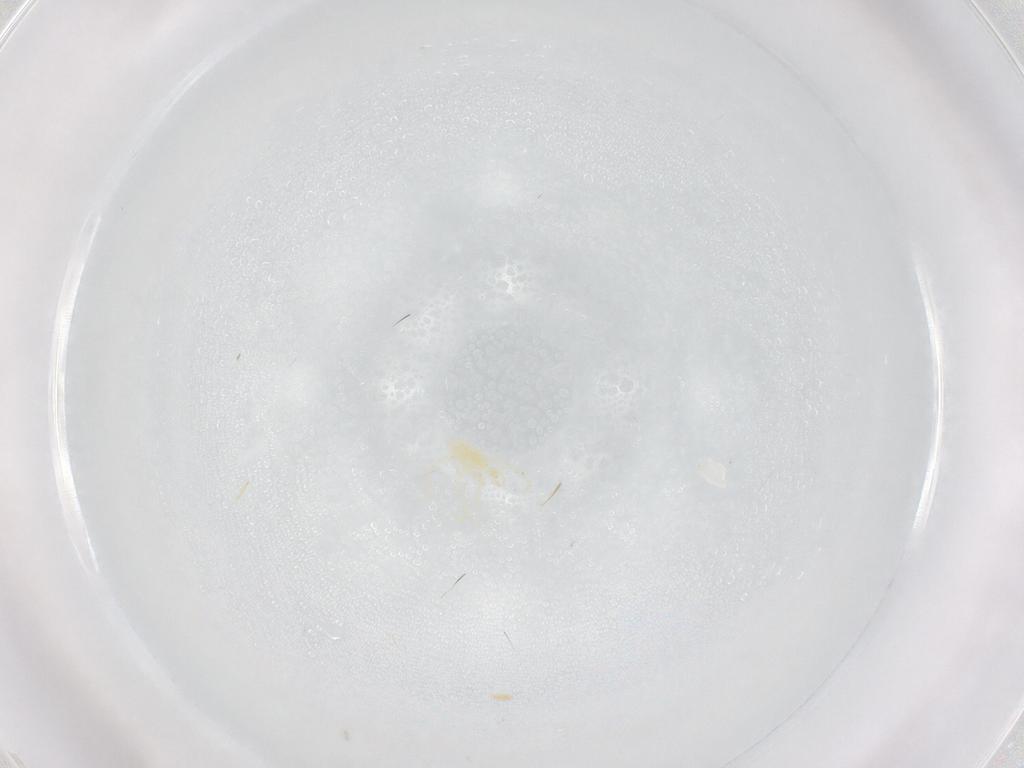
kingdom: Animalia
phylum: Arthropoda
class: Arachnida
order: Trombidiformes
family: Erythraeidae
